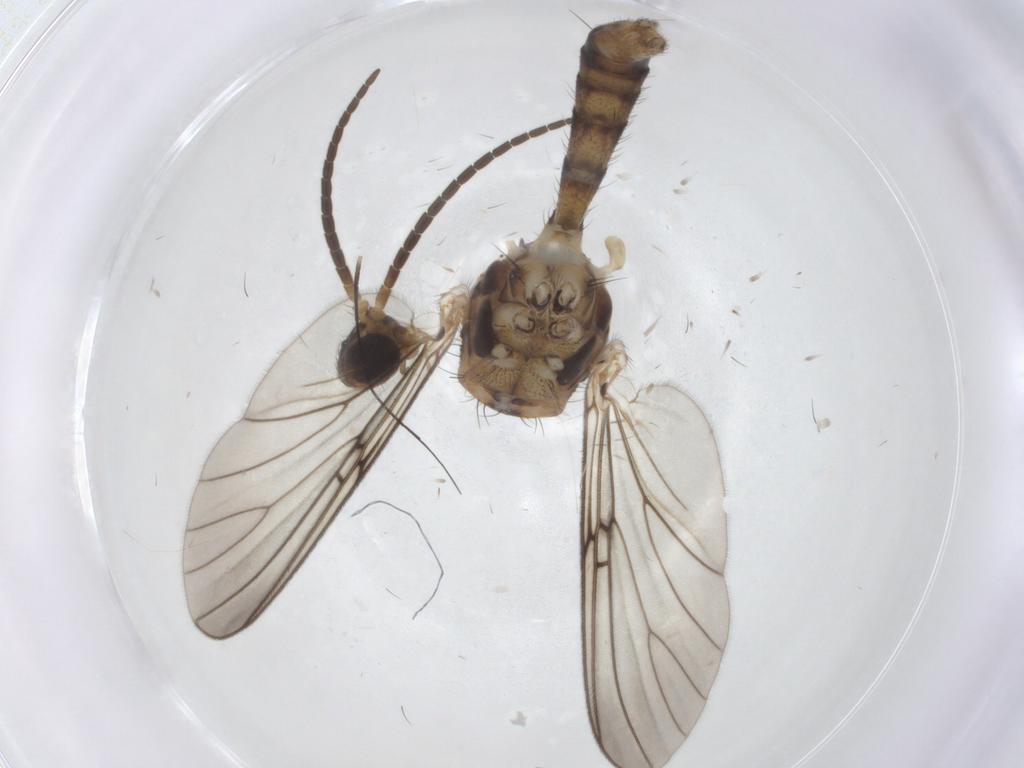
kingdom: Animalia
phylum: Arthropoda
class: Insecta
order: Diptera
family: Mycetophilidae
